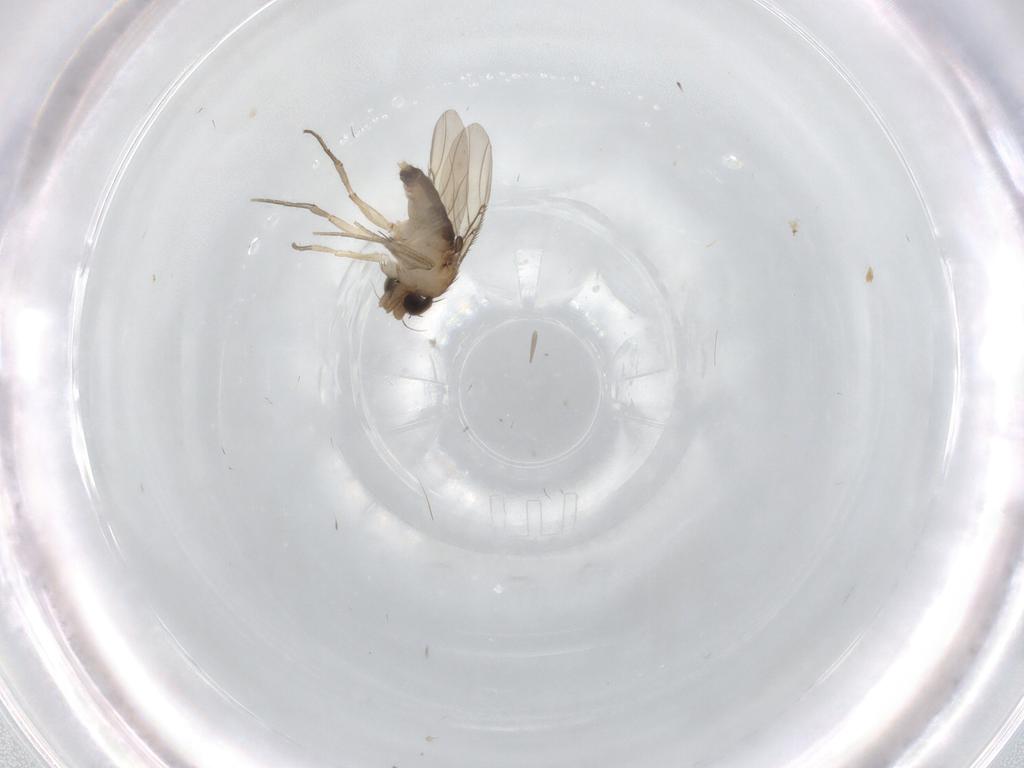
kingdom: Animalia
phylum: Arthropoda
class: Insecta
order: Diptera
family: Phoridae
